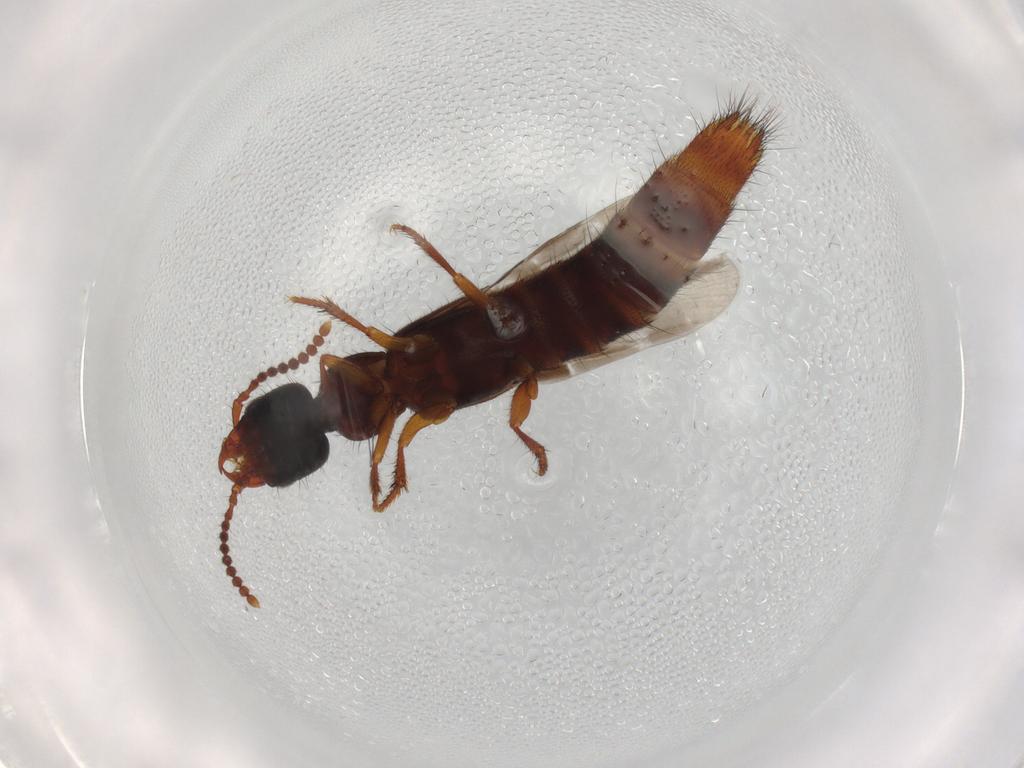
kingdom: Animalia
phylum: Arthropoda
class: Insecta
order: Coleoptera
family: Staphylinidae
